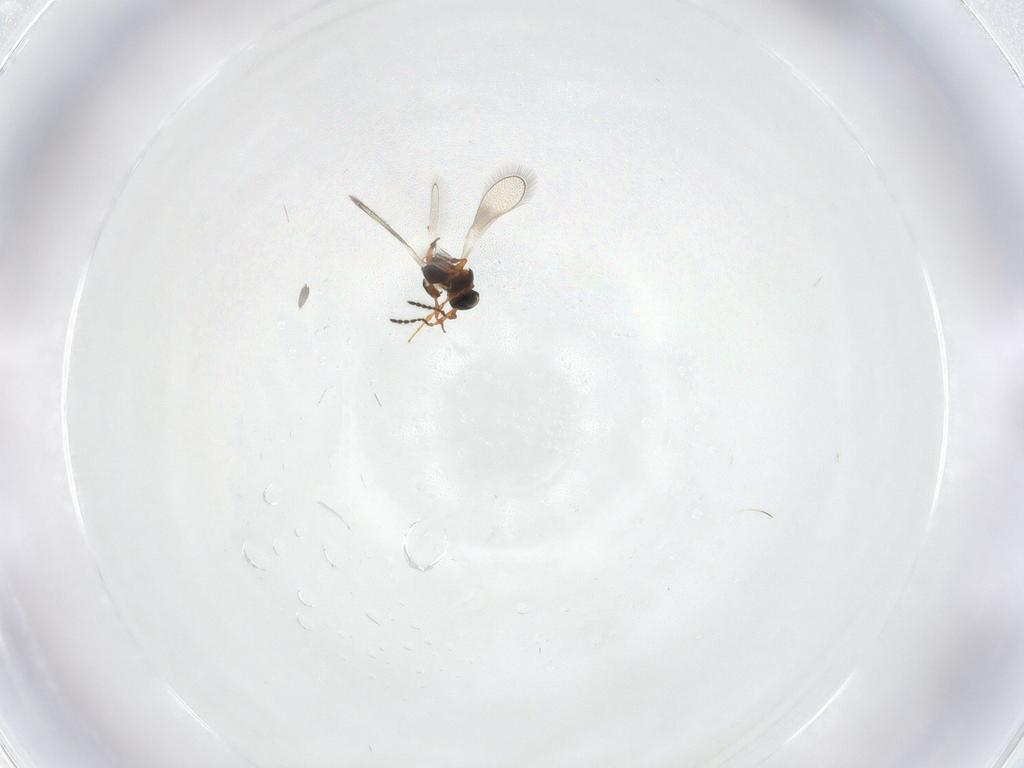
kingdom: Animalia
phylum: Arthropoda
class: Insecta
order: Hymenoptera
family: Platygastridae
